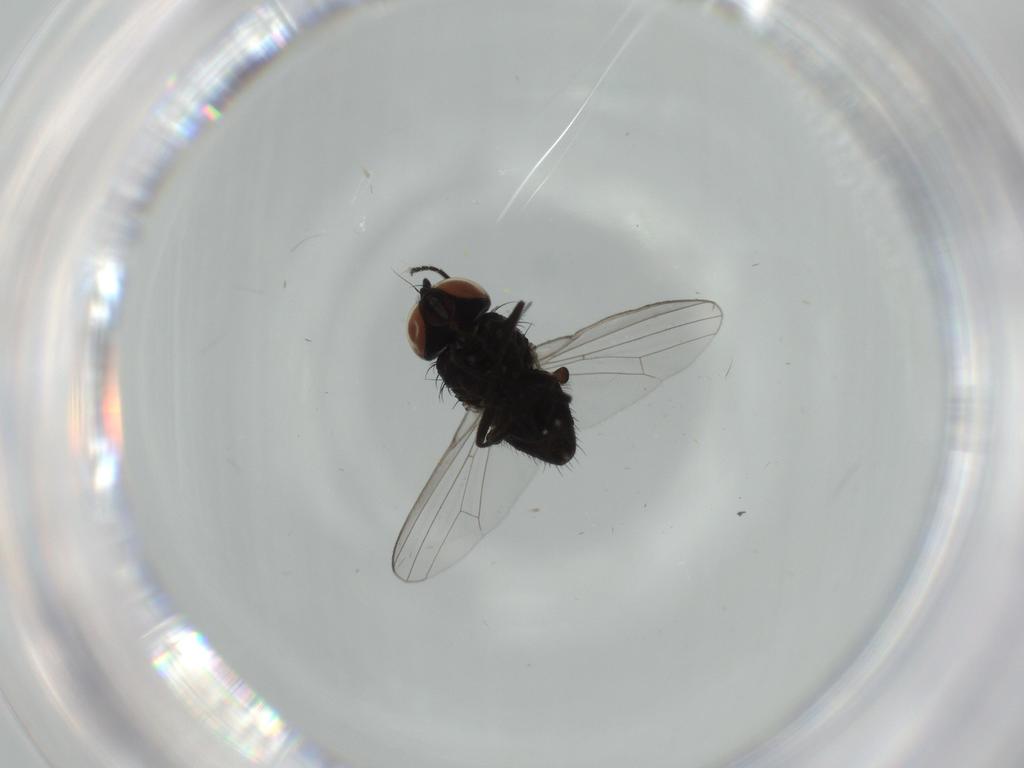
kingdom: Animalia
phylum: Arthropoda
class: Insecta
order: Diptera
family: Milichiidae
